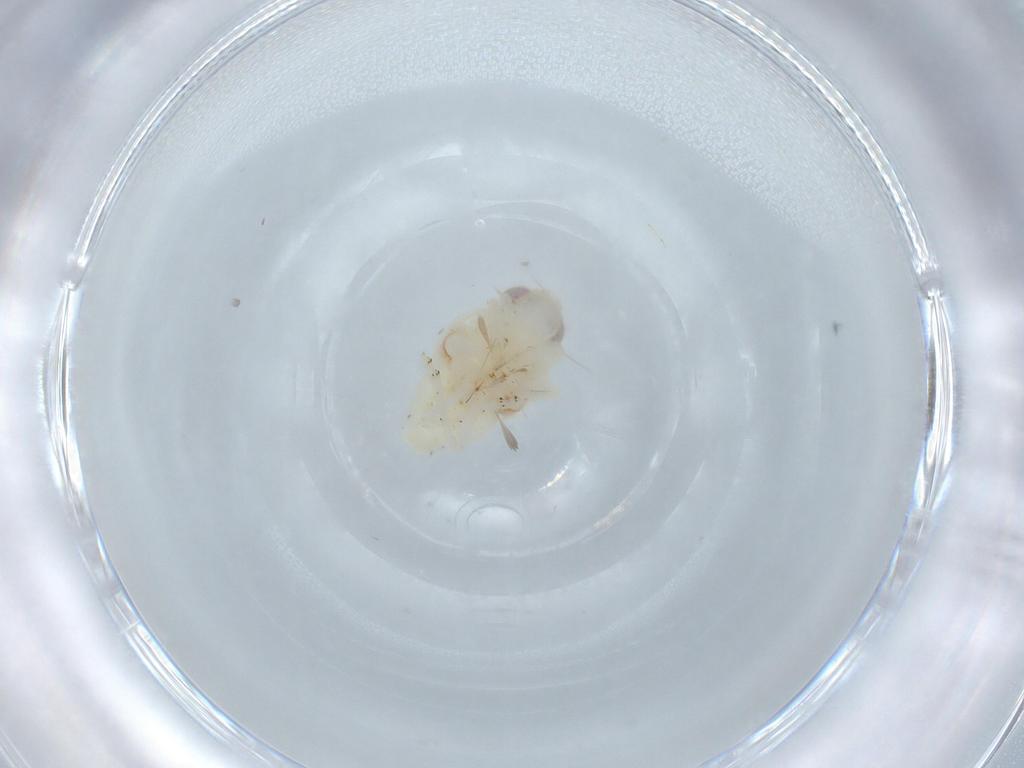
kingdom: Animalia
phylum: Arthropoda
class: Insecta
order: Hemiptera
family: Nogodinidae
